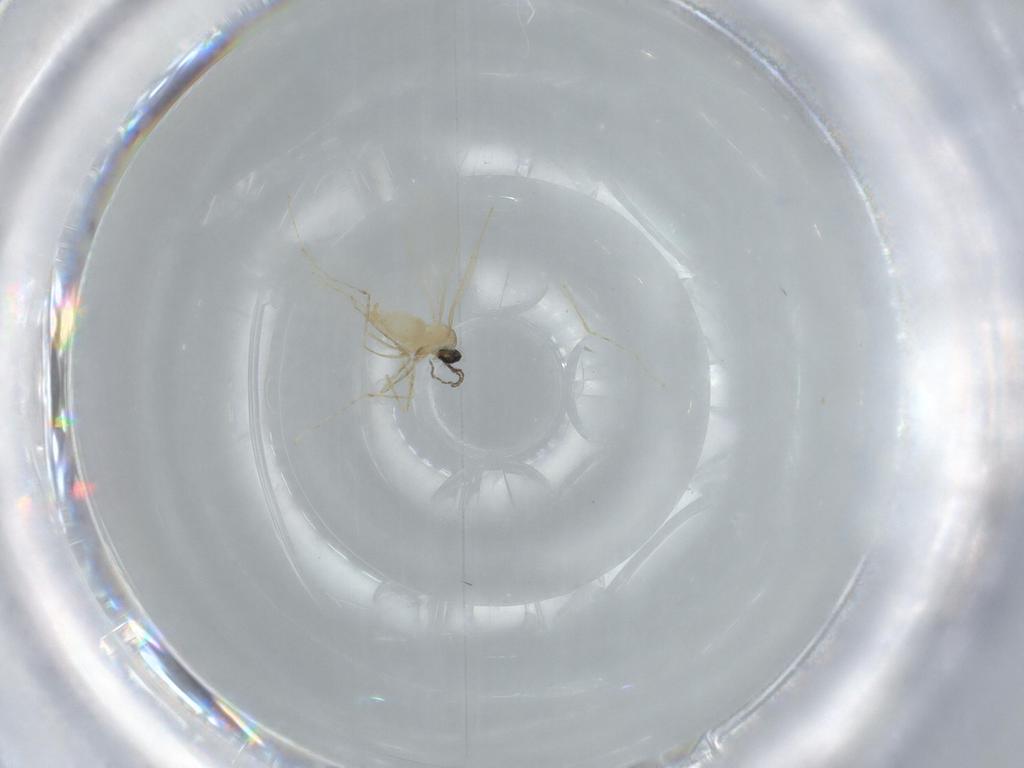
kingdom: Animalia
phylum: Arthropoda
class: Insecta
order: Diptera
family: Cecidomyiidae
